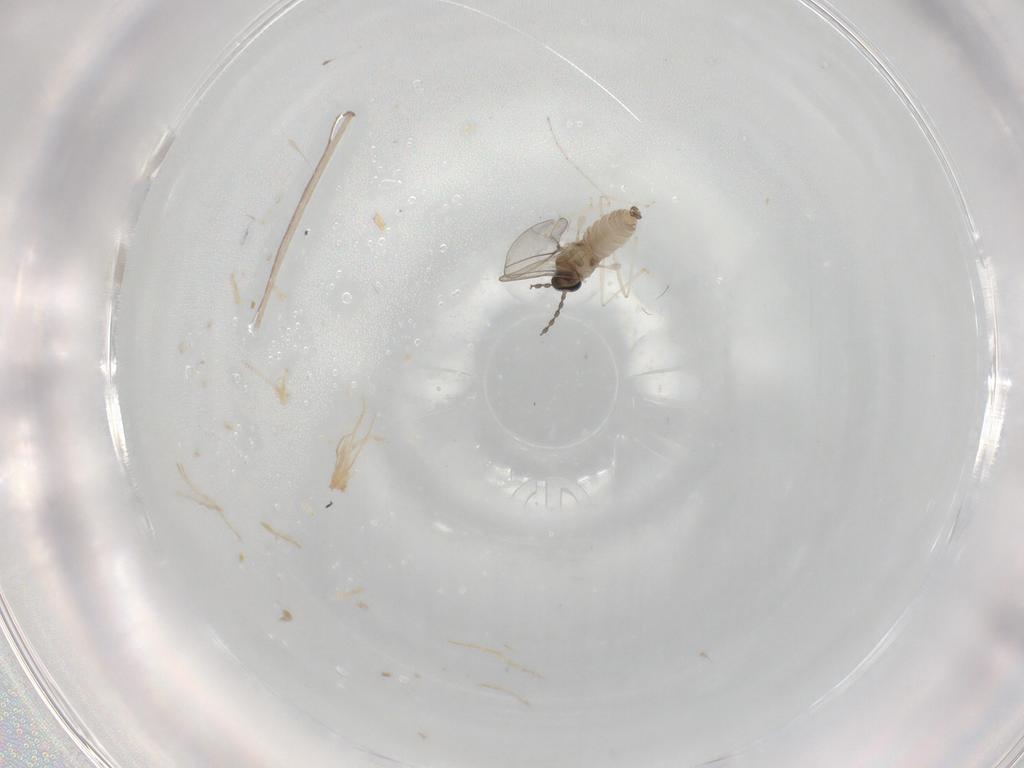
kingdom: Animalia
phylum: Arthropoda
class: Insecta
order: Diptera
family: Cecidomyiidae
